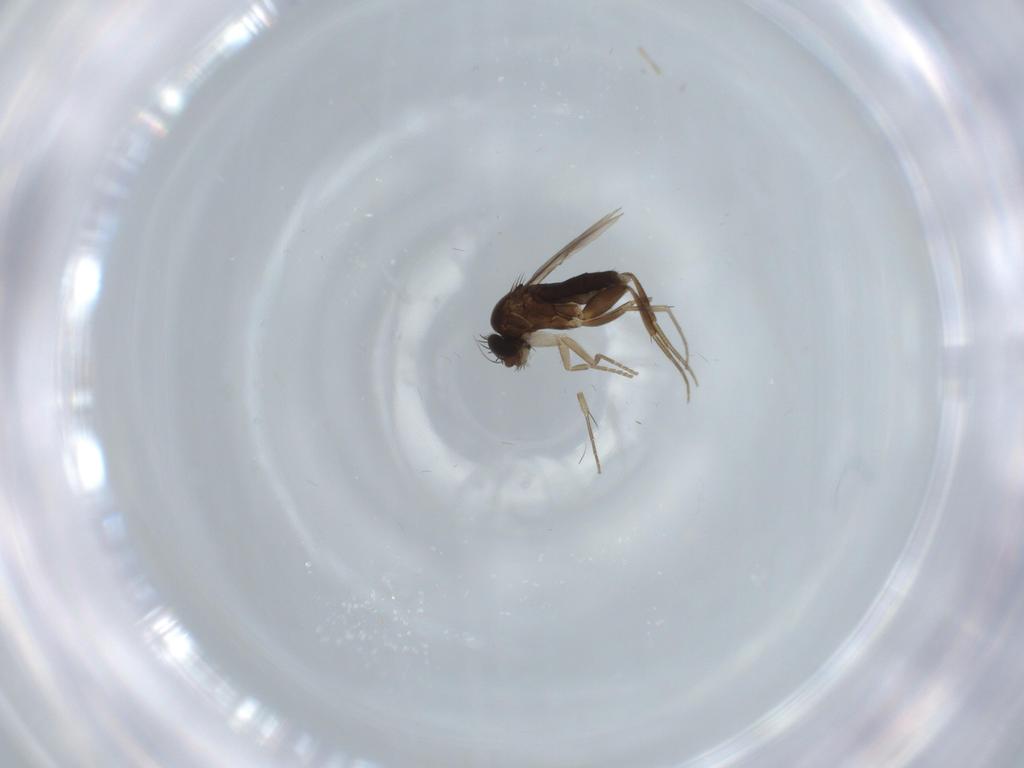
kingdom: Animalia
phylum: Arthropoda
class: Insecta
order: Diptera
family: Phoridae
